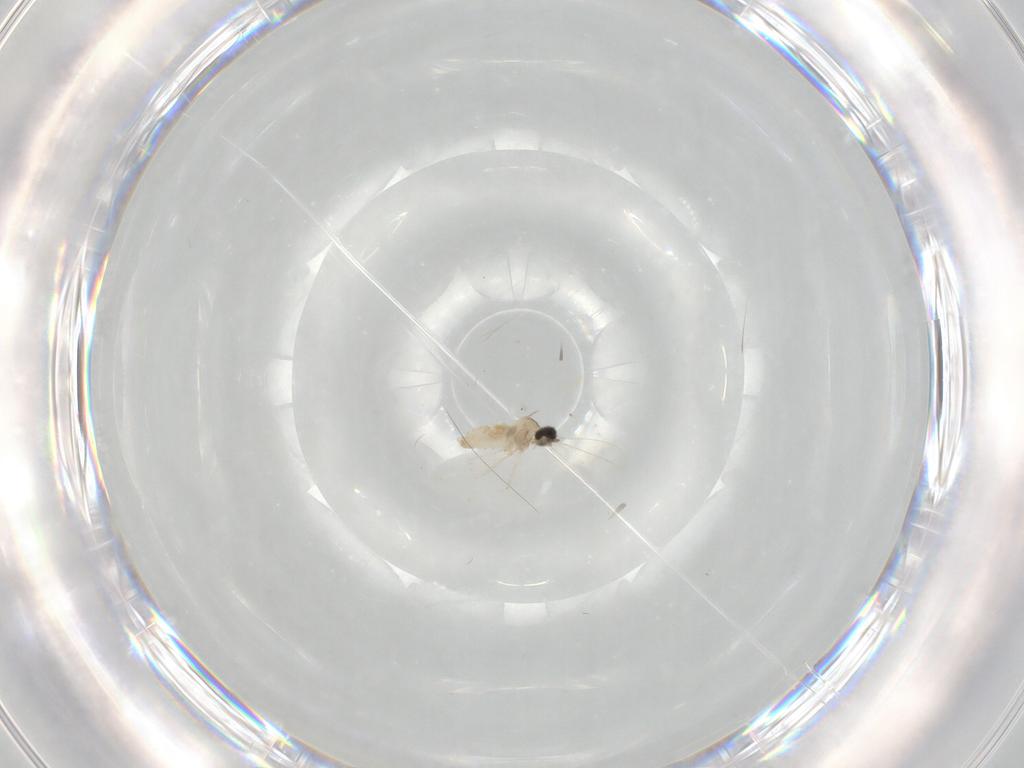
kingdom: Animalia
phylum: Arthropoda
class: Insecta
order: Diptera
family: Cecidomyiidae
